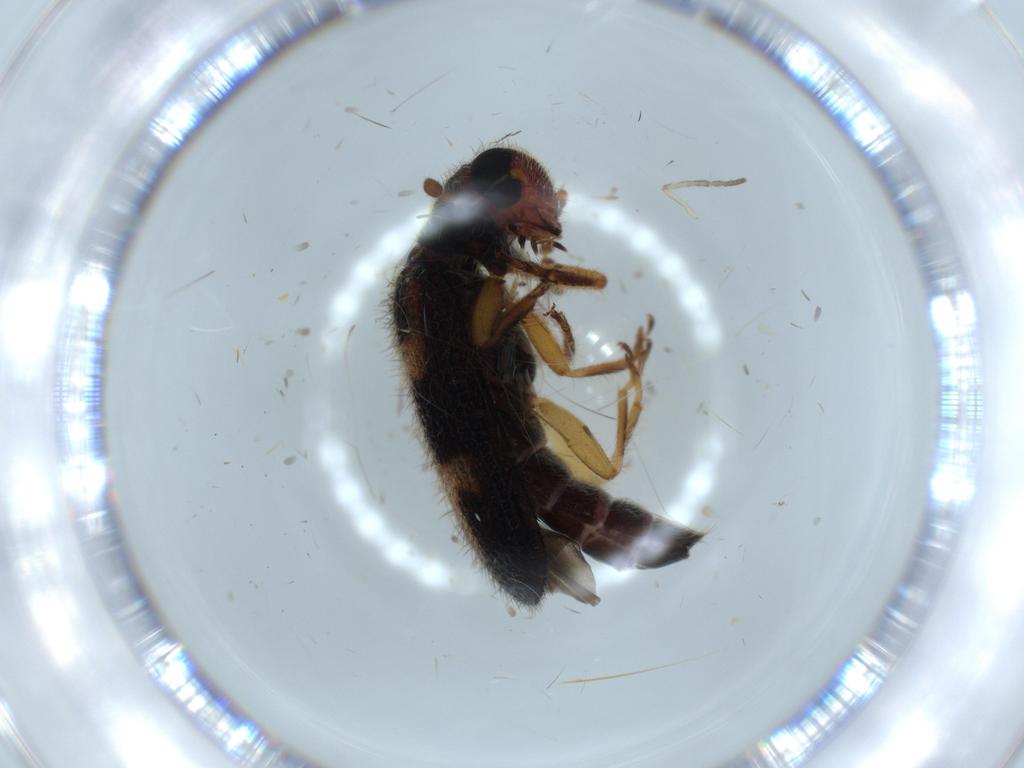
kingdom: Animalia
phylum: Arthropoda
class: Insecta
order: Coleoptera
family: Cleridae
